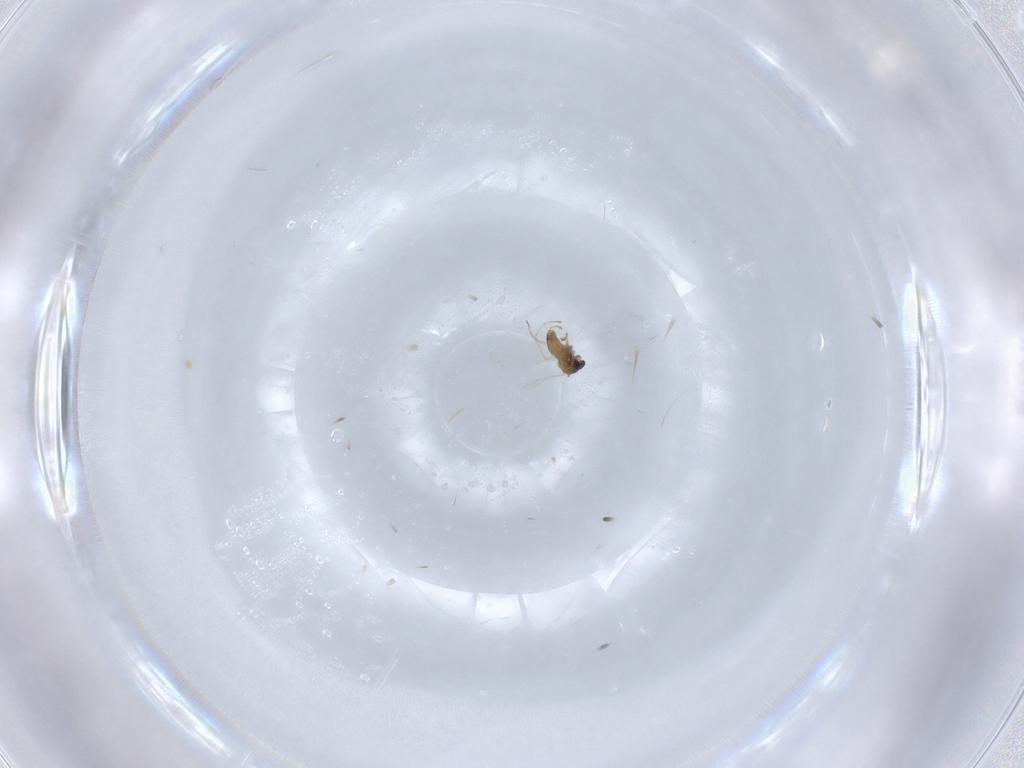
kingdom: Animalia
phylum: Arthropoda
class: Insecta
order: Diptera
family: Cecidomyiidae
